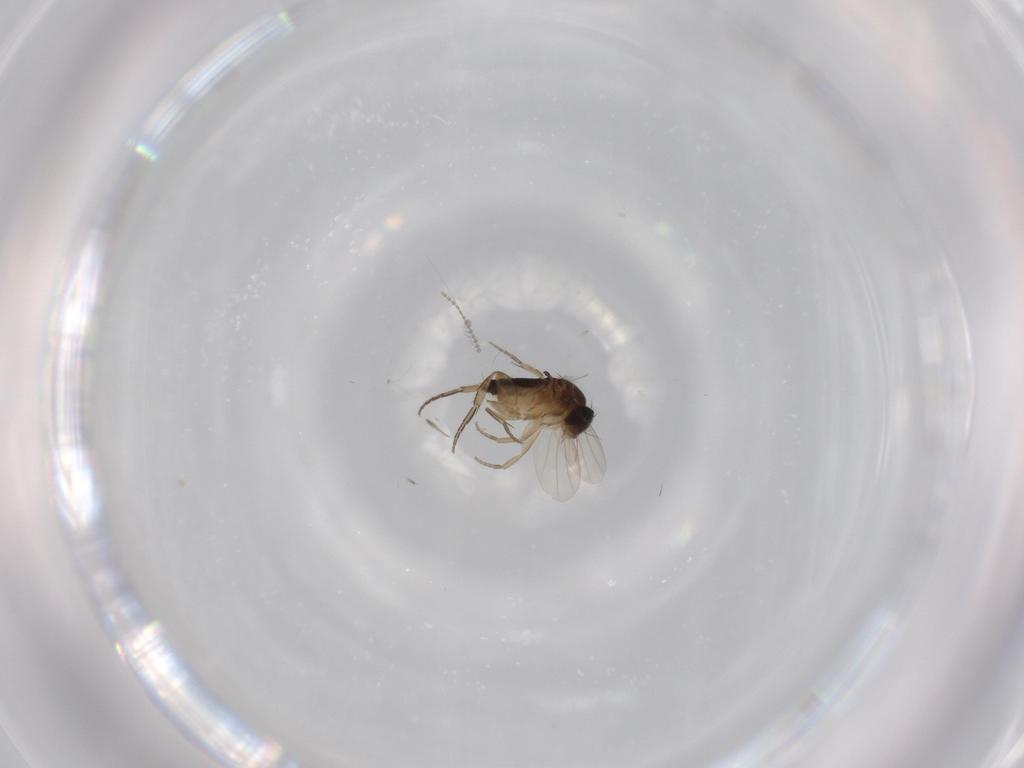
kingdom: Animalia
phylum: Arthropoda
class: Insecta
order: Diptera
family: Phoridae
